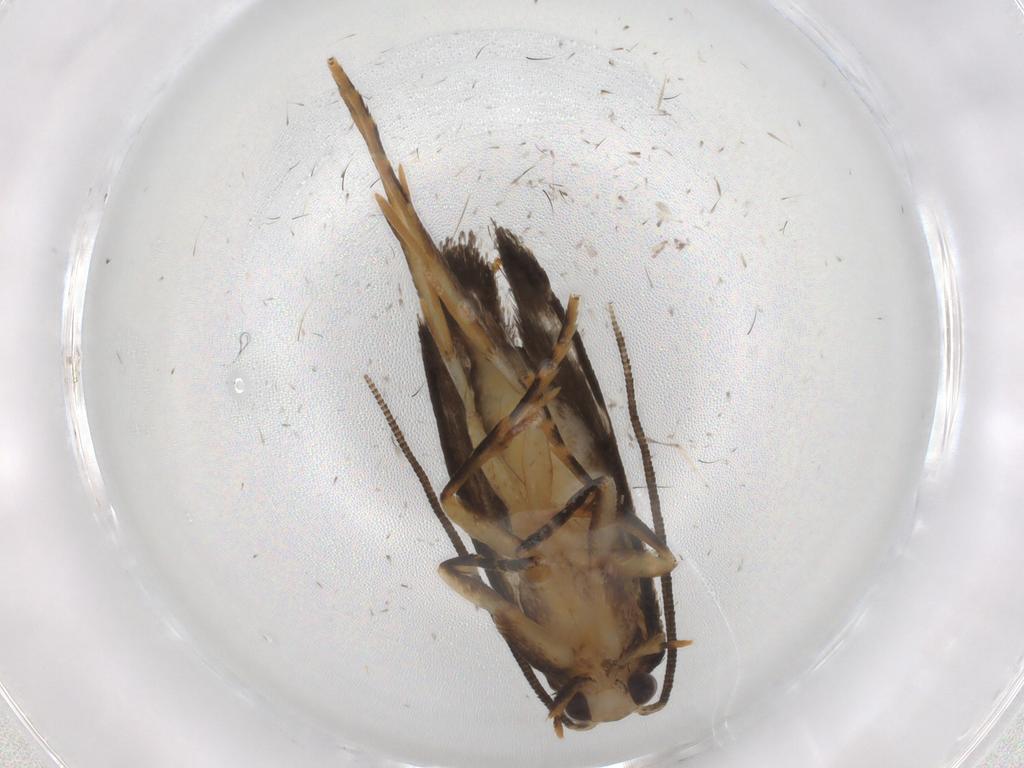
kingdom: Animalia
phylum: Arthropoda
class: Insecta
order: Lepidoptera
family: Tineidae
